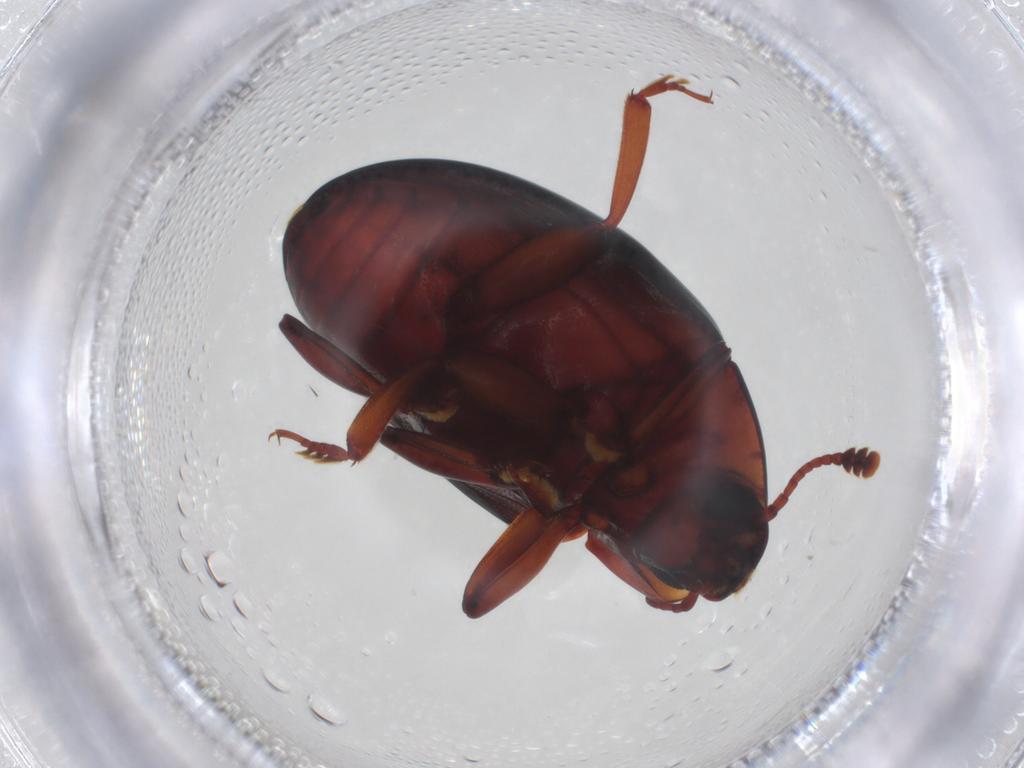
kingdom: Animalia
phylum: Arthropoda
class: Insecta
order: Coleoptera
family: Zopheridae
